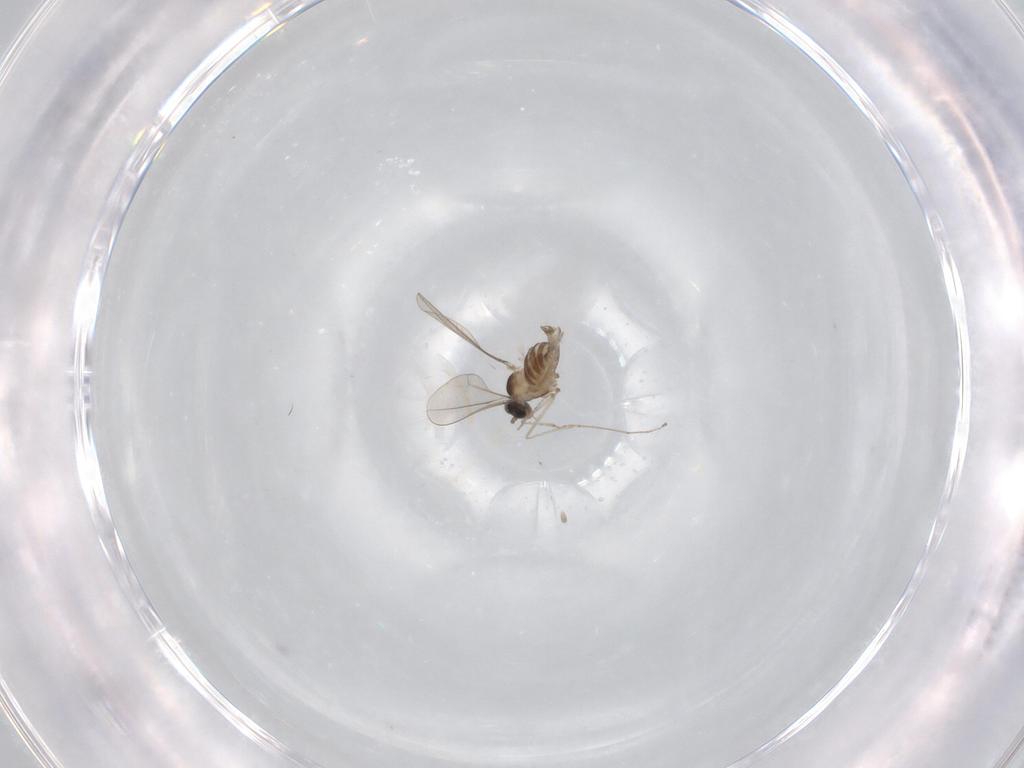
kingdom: Animalia
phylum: Arthropoda
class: Insecta
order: Diptera
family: Cecidomyiidae
